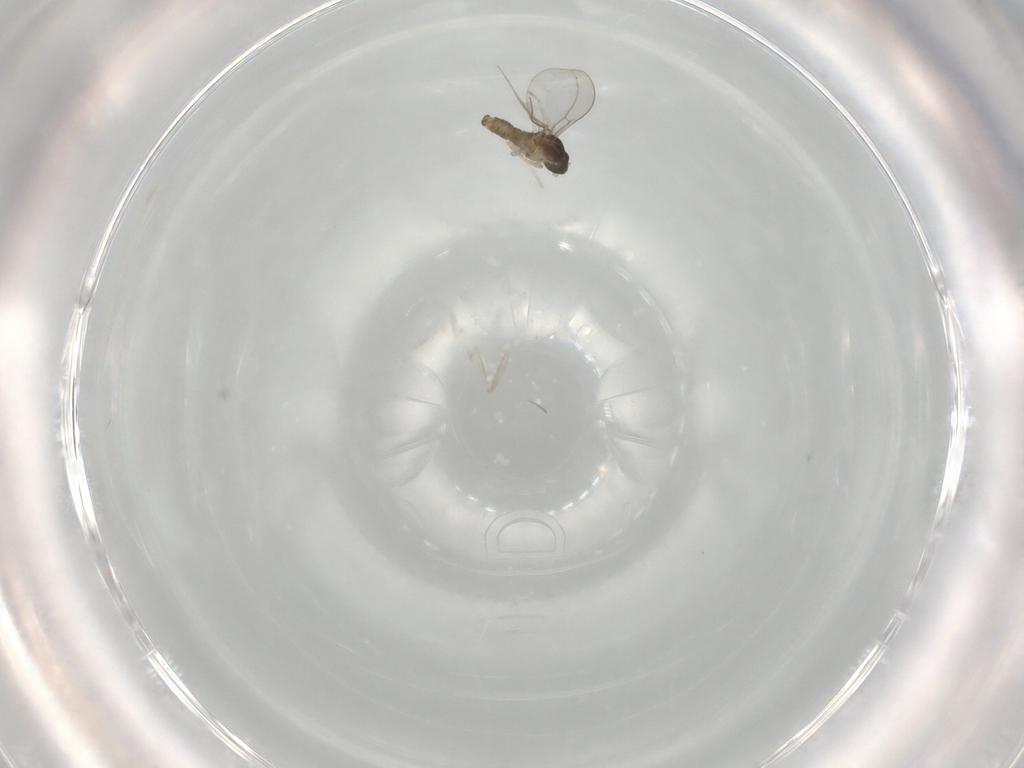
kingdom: Animalia
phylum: Arthropoda
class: Insecta
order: Diptera
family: Cecidomyiidae
